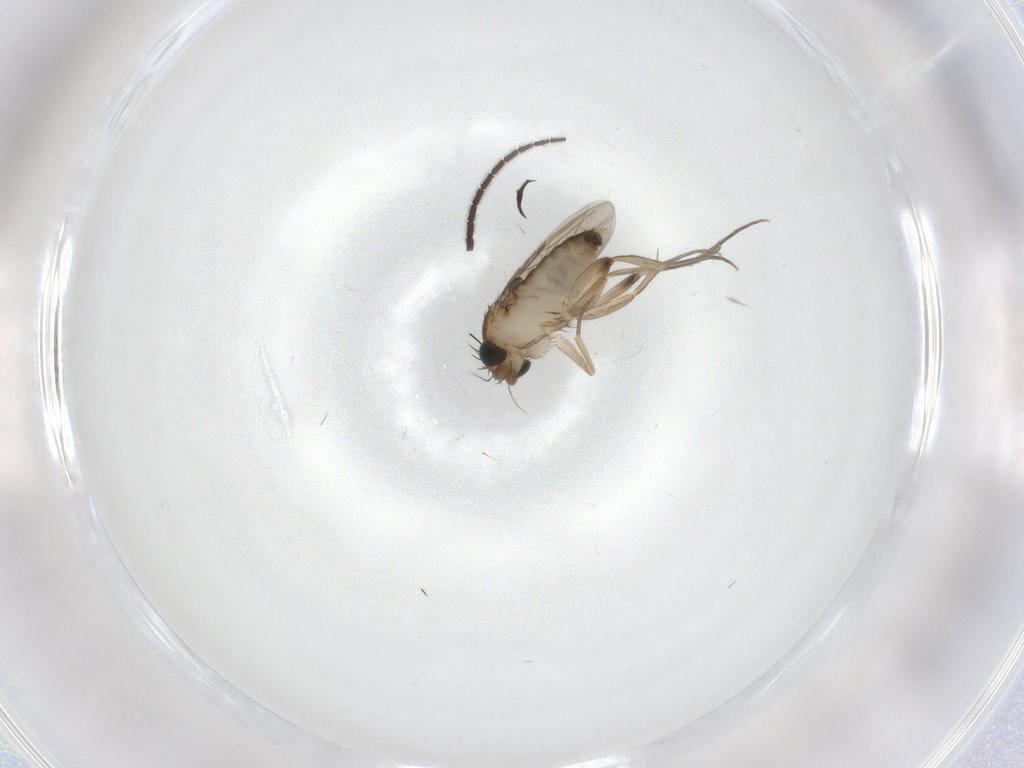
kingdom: Animalia
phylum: Arthropoda
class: Insecta
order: Diptera
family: Phoridae
